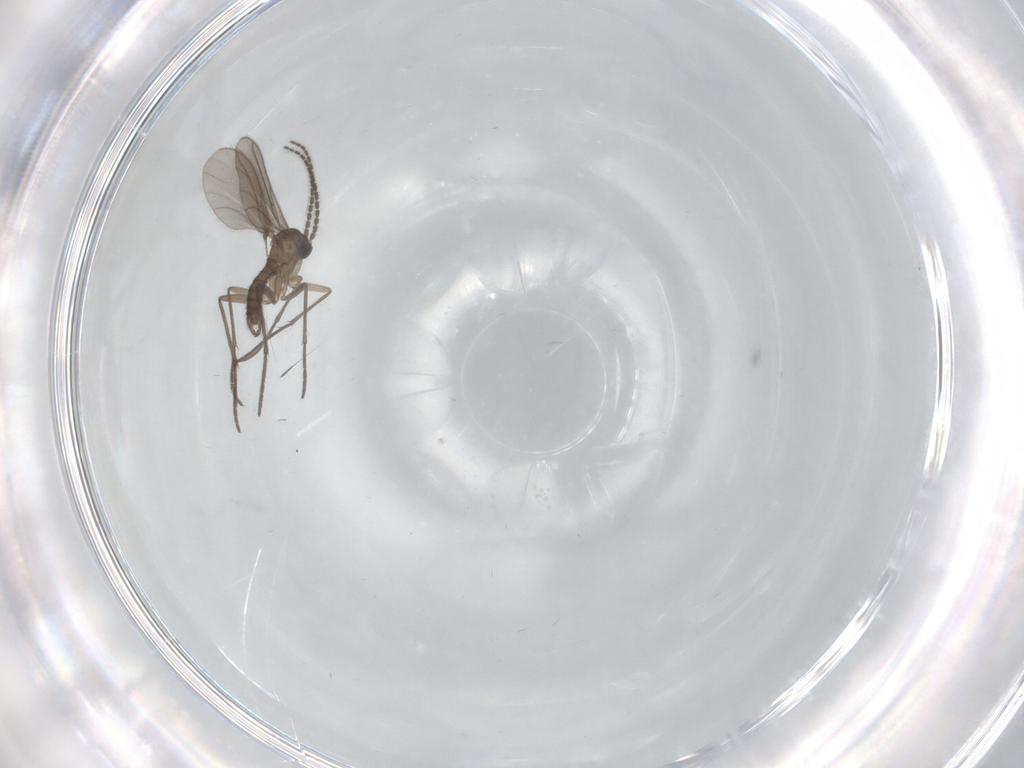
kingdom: Animalia
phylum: Arthropoda
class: Insecta
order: Diptera
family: Sciaridae
